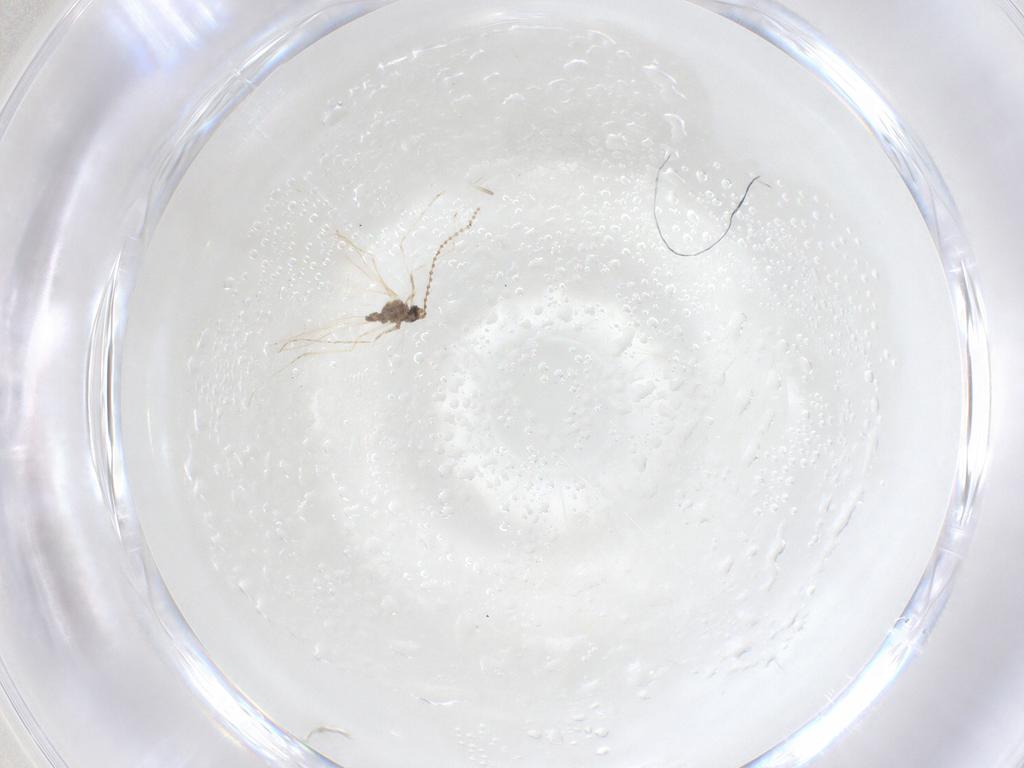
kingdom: Animalia
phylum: Arthropoda
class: Insecta
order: Diptera
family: Cecidomyiidae
